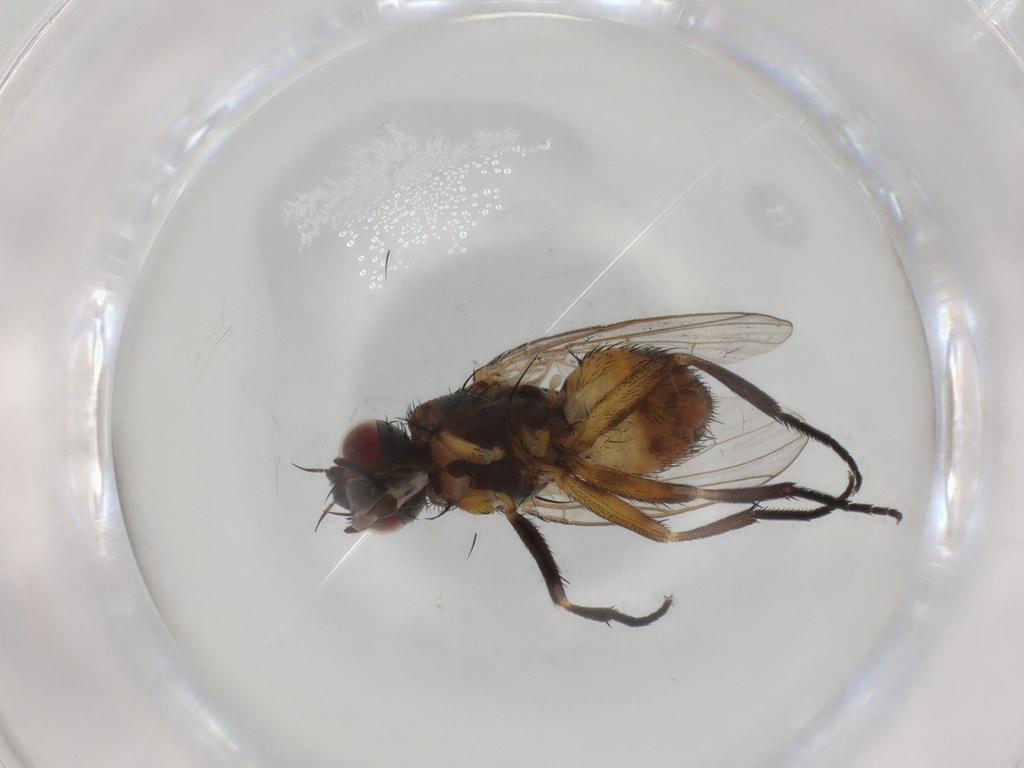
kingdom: Animalia
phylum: Arthropoda
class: Insecta
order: Diptera
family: Muscidae
